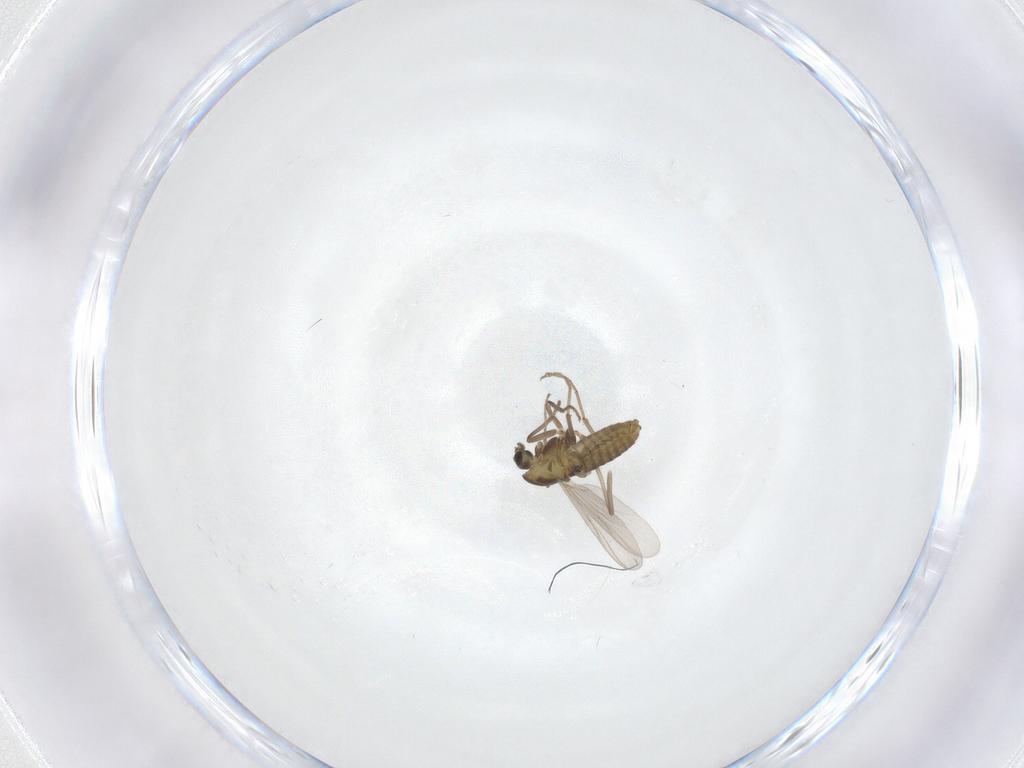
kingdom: Animalia
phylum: Arthropoda
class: Insecta
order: Diptera
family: Chironomidae
